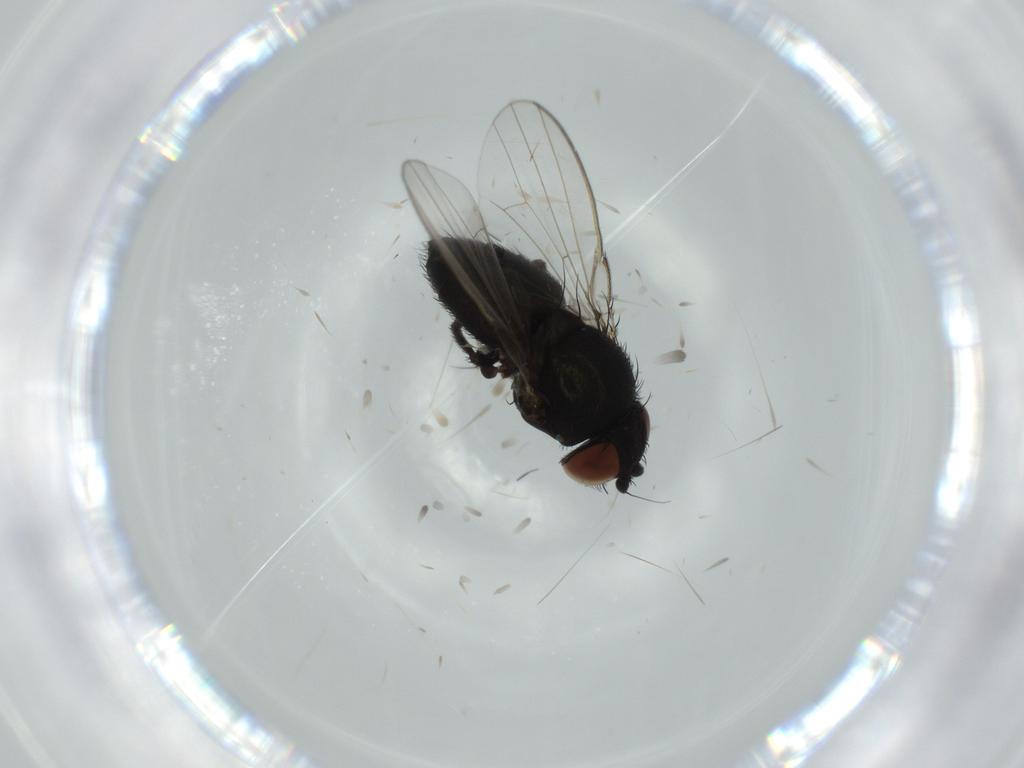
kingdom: Animalia
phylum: Arthropoda
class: Insecta
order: Diptera
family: Milichiidae
